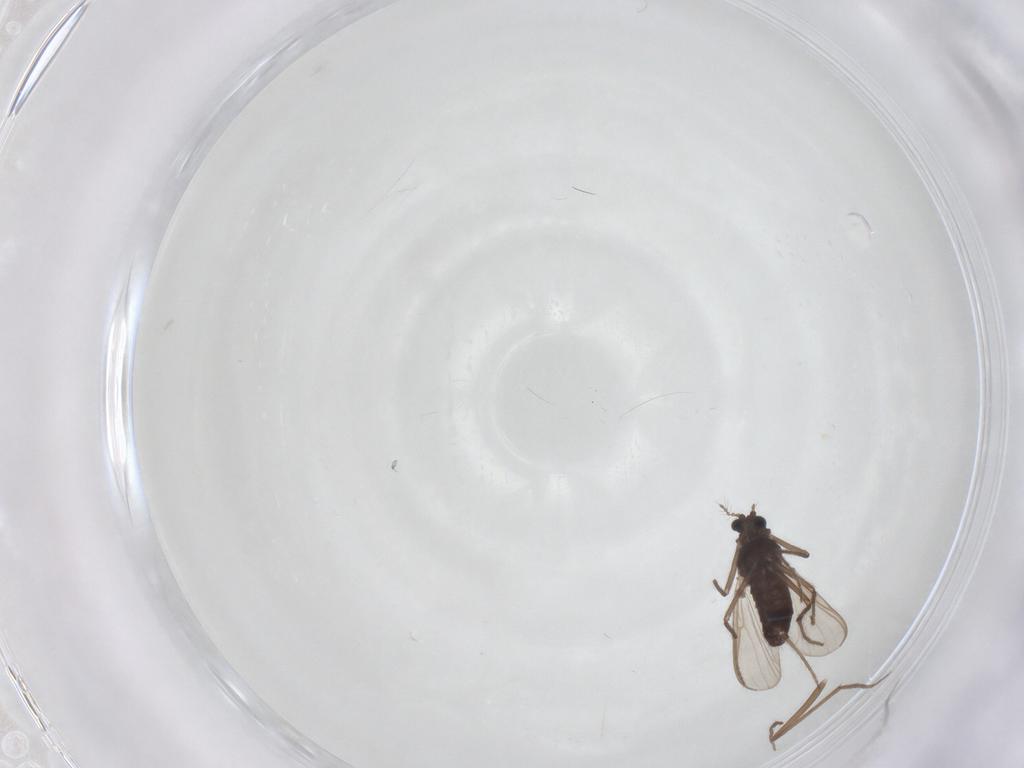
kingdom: Animalia
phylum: Arthropoda
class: Insecta
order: Diptera
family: Chironomidae
